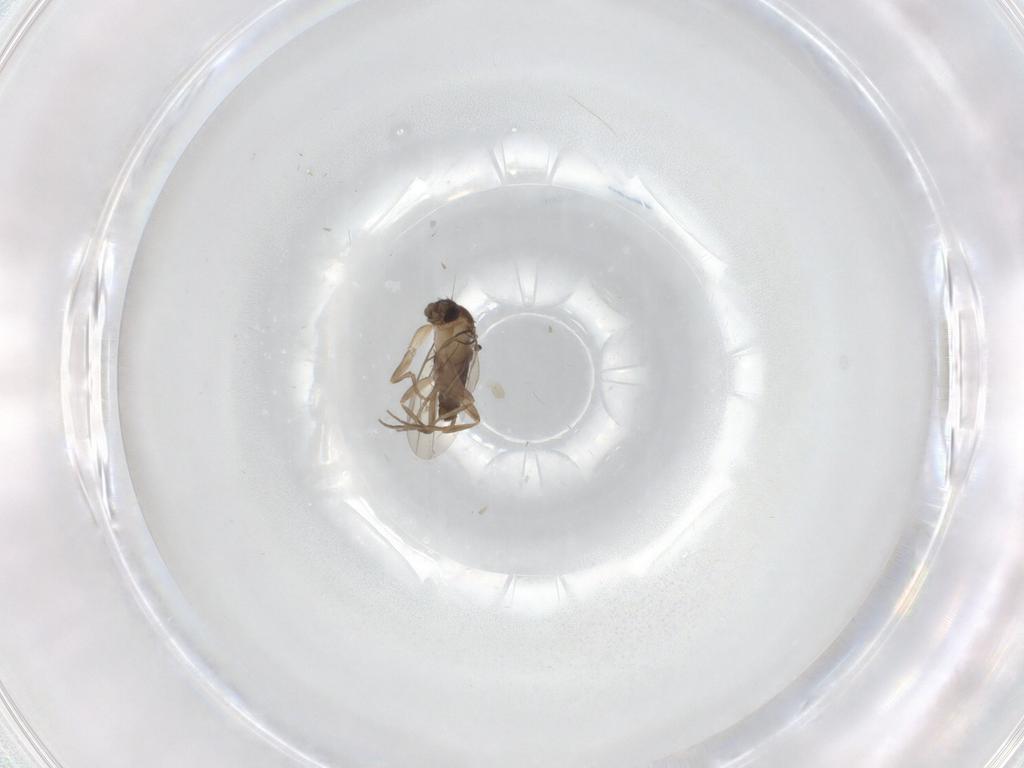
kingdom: Animalia
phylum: Arthropoda
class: Insecta
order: Diptera
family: Phoridae
